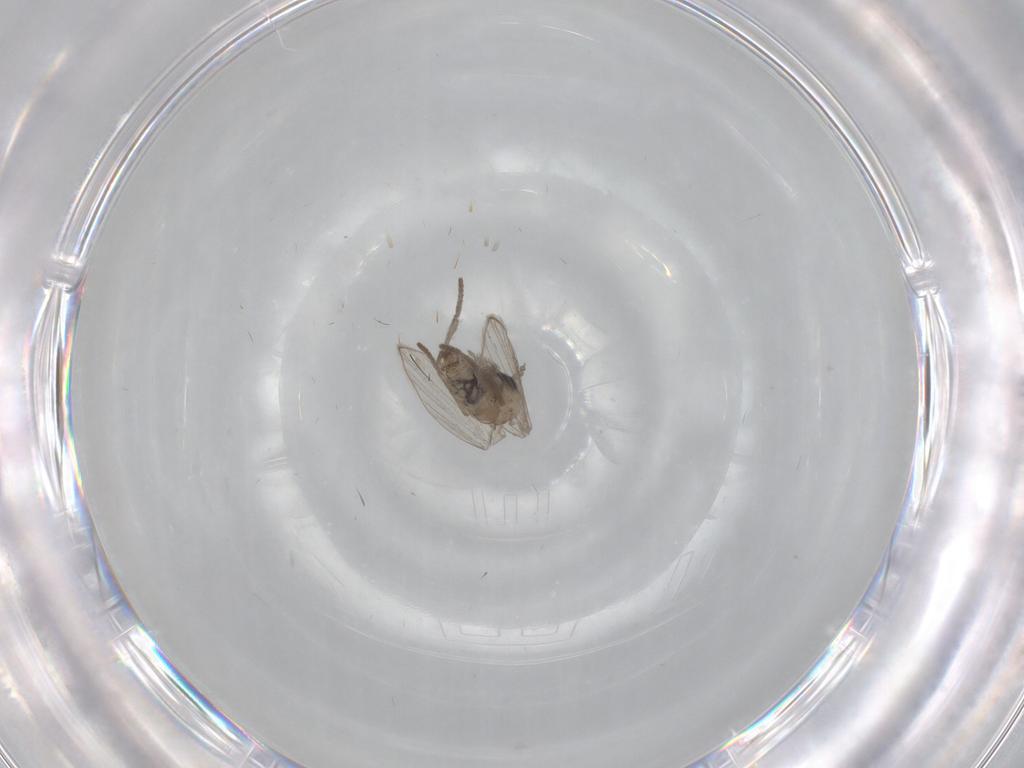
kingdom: Animalia
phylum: Arthropoda
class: Insecta
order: Diptera
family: Psychodidae
